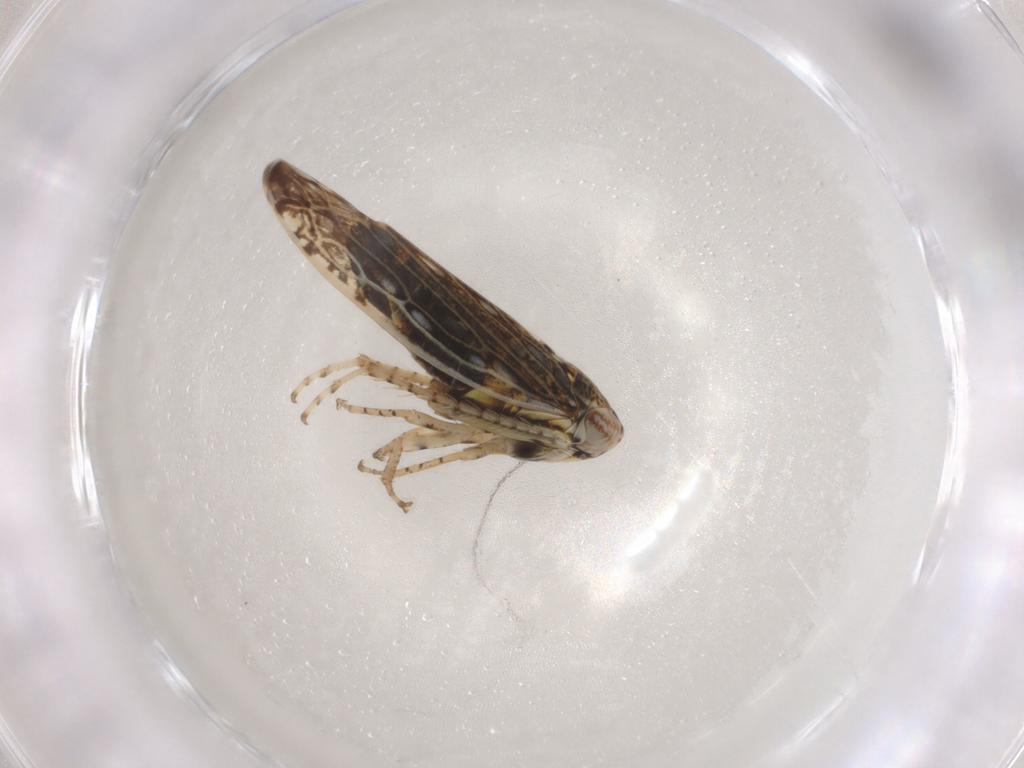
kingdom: Animalia
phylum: Arthropoda
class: Insecta
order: Hemiptera
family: Cicadellidae
